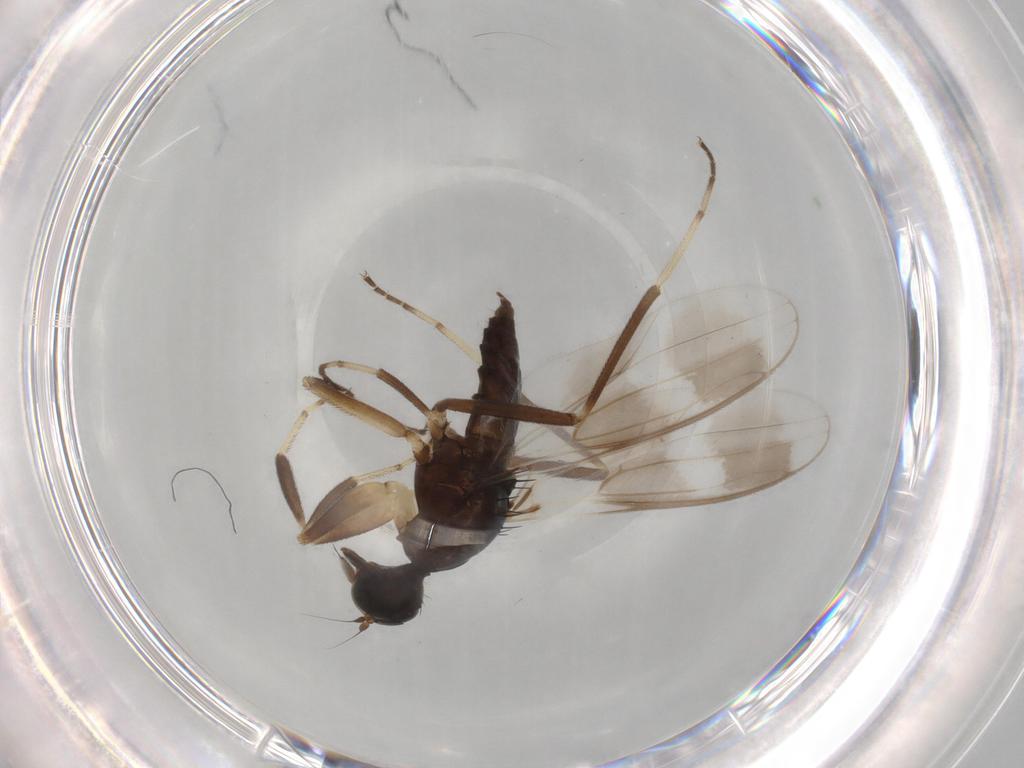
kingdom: Animalia
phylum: Arthropoda
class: Insecta
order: Diptera
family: Hybotidae
